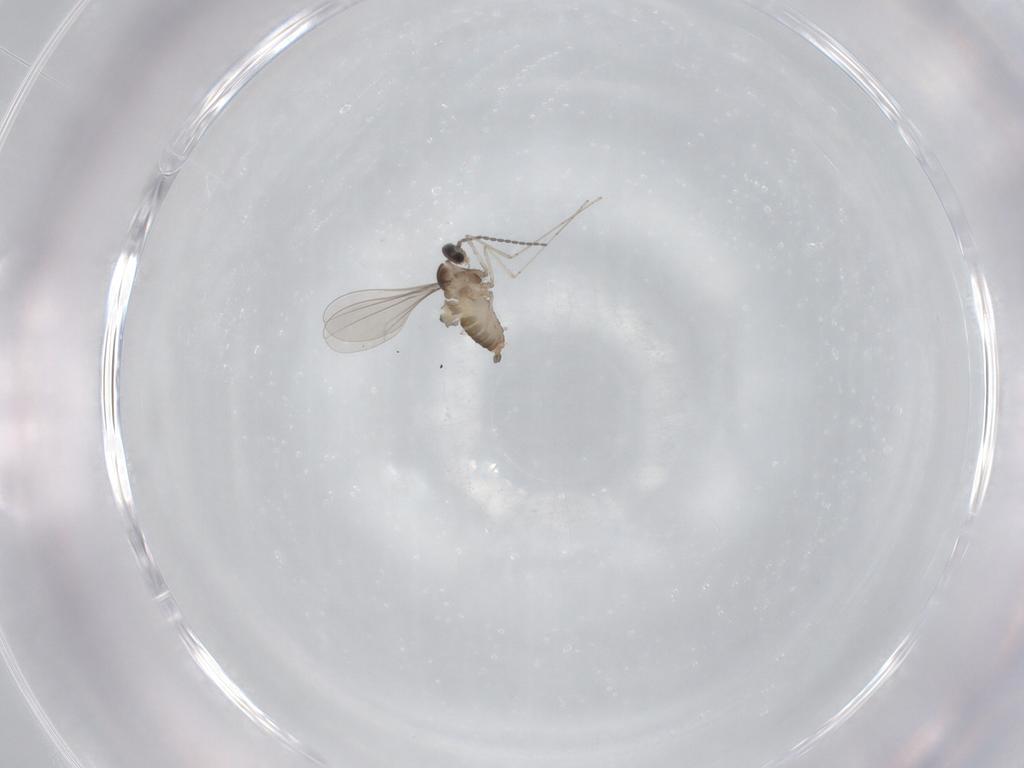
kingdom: Animalia
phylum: Arthropoda
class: Insecta
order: Diptera
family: Cecidomyiidae
